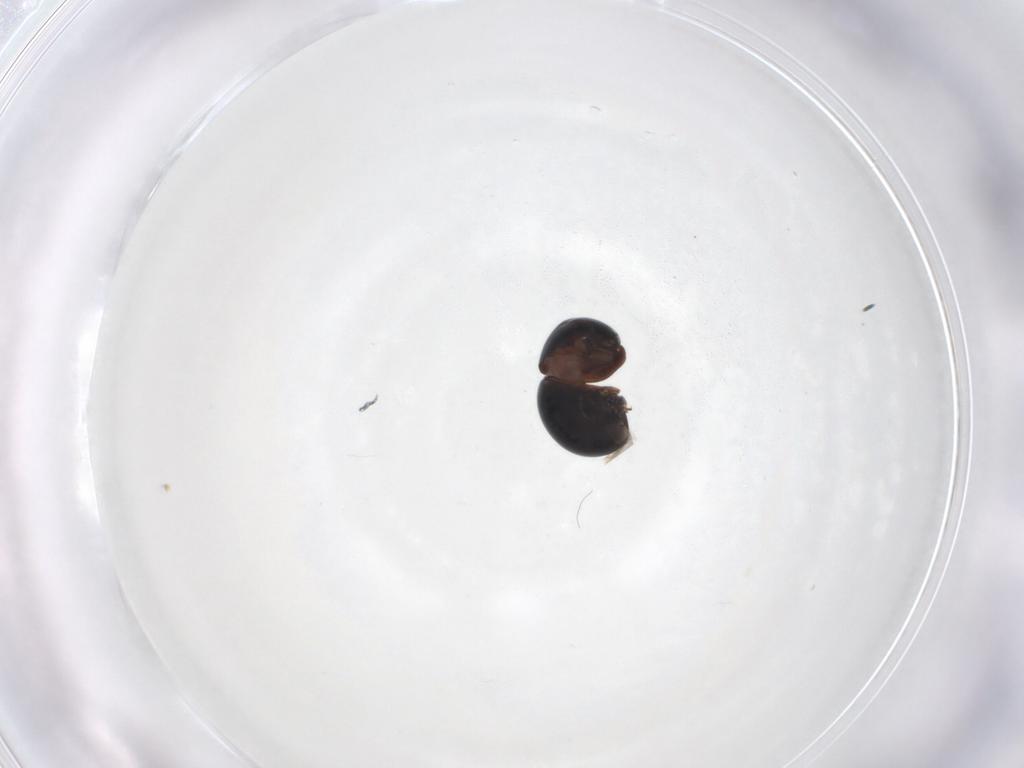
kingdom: Animalia
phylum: Arthropoda
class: Insecta
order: Coleoptera
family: Cybocephalidae
